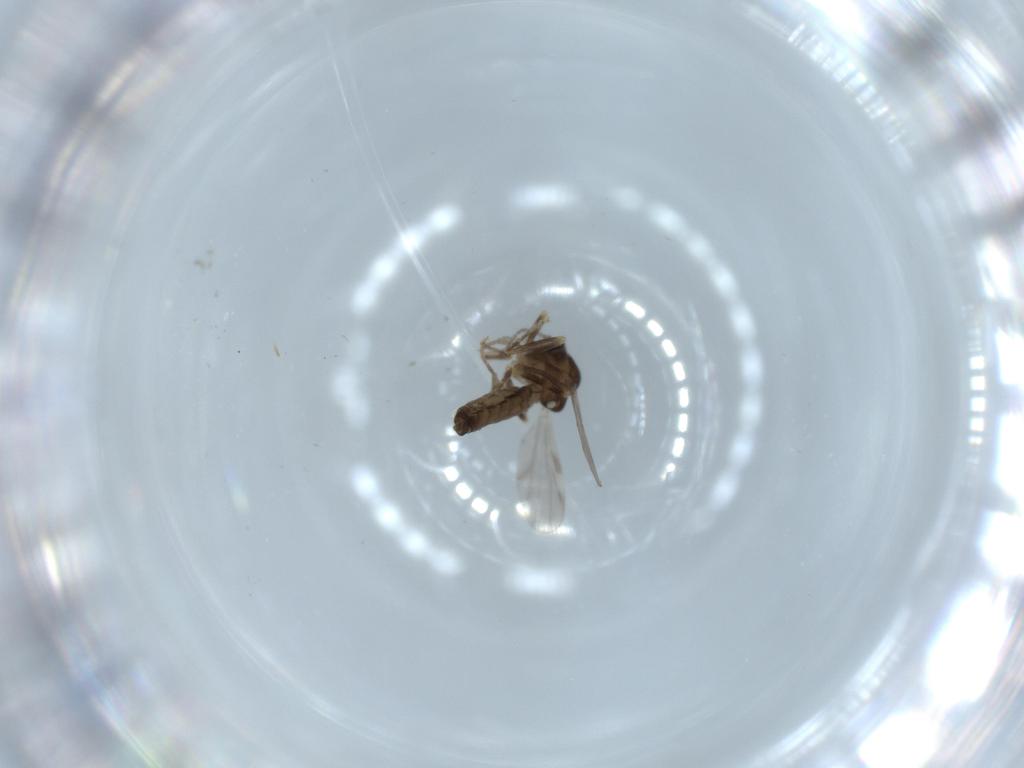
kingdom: Animalia
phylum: Arthropoda
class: Insecta
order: Diptera
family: Ceratopogonidae
